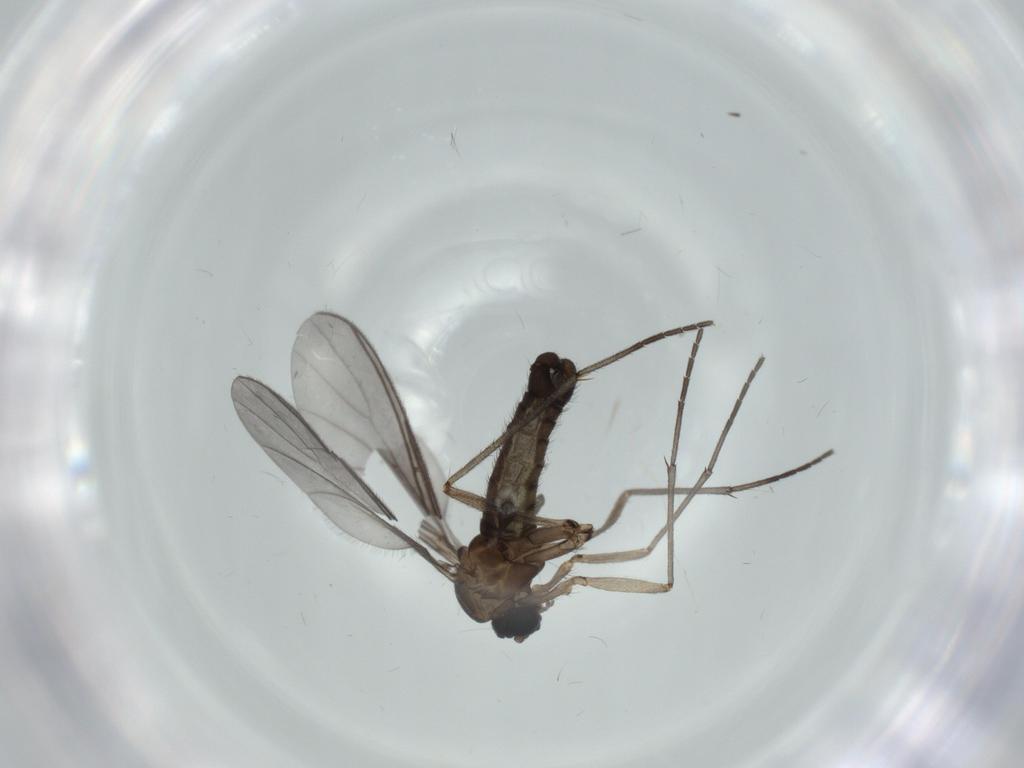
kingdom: Animalia
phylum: Arthropoda
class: Insecta
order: Diptera
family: Sciaridae
